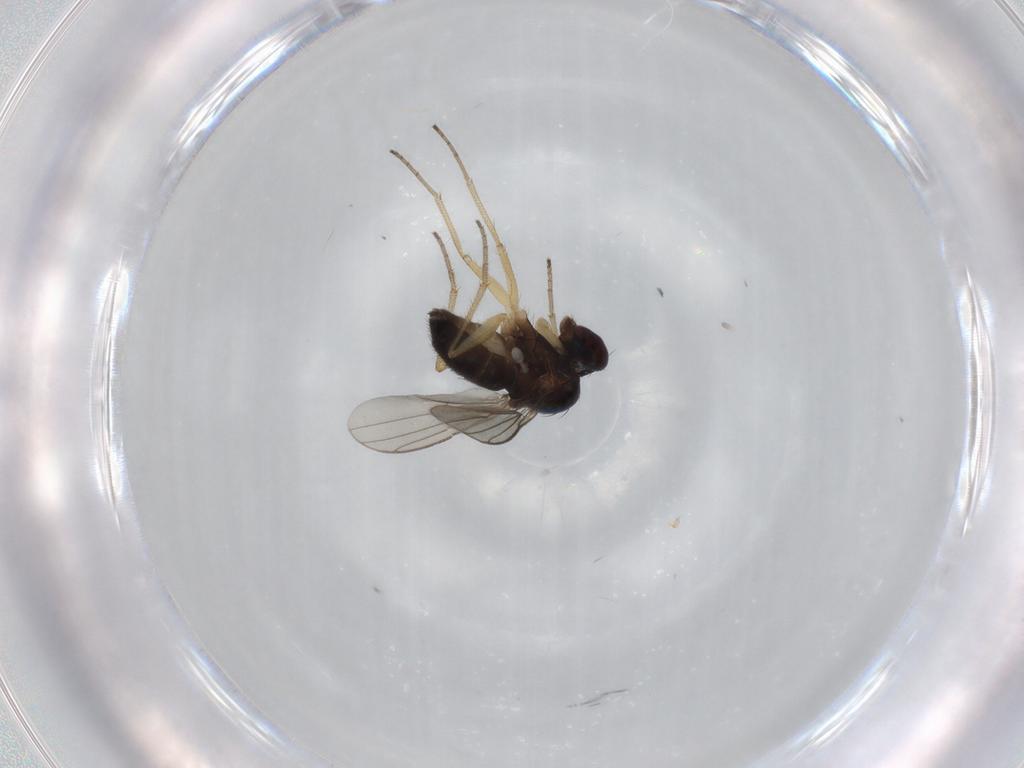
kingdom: Animalia
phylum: Arthropoda
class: Insecta
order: Diptera
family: Dolichopodidae
